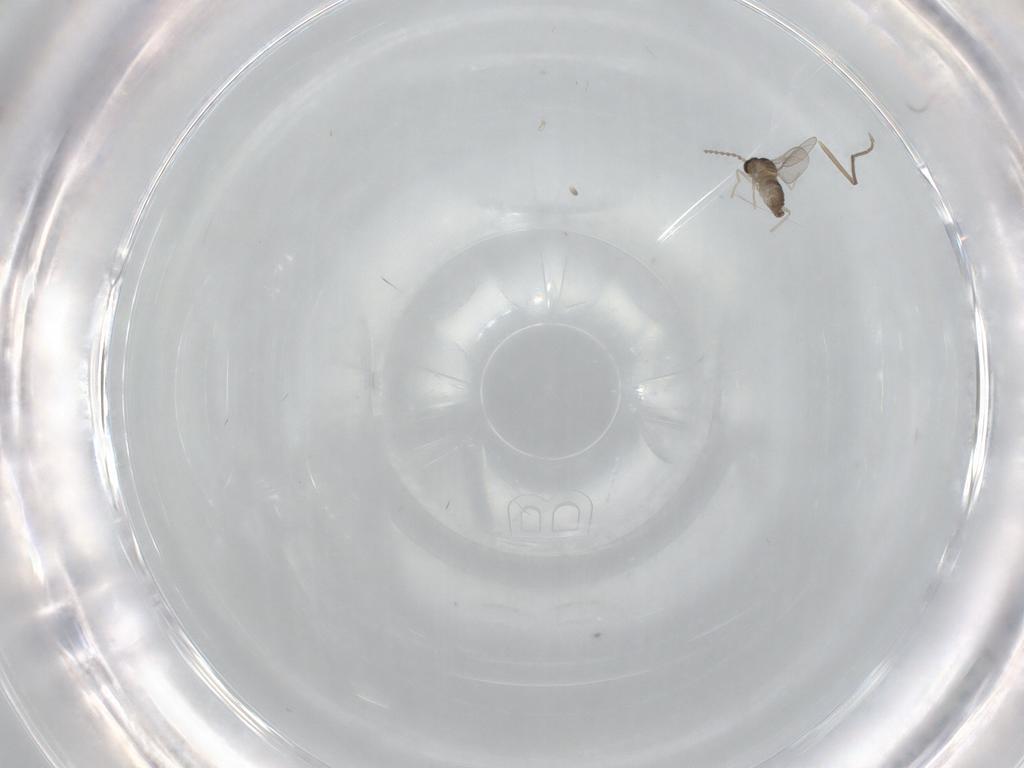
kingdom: Animalia
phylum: Arthropoda
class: Insecta
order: Diptera
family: Cecidomyiidae
